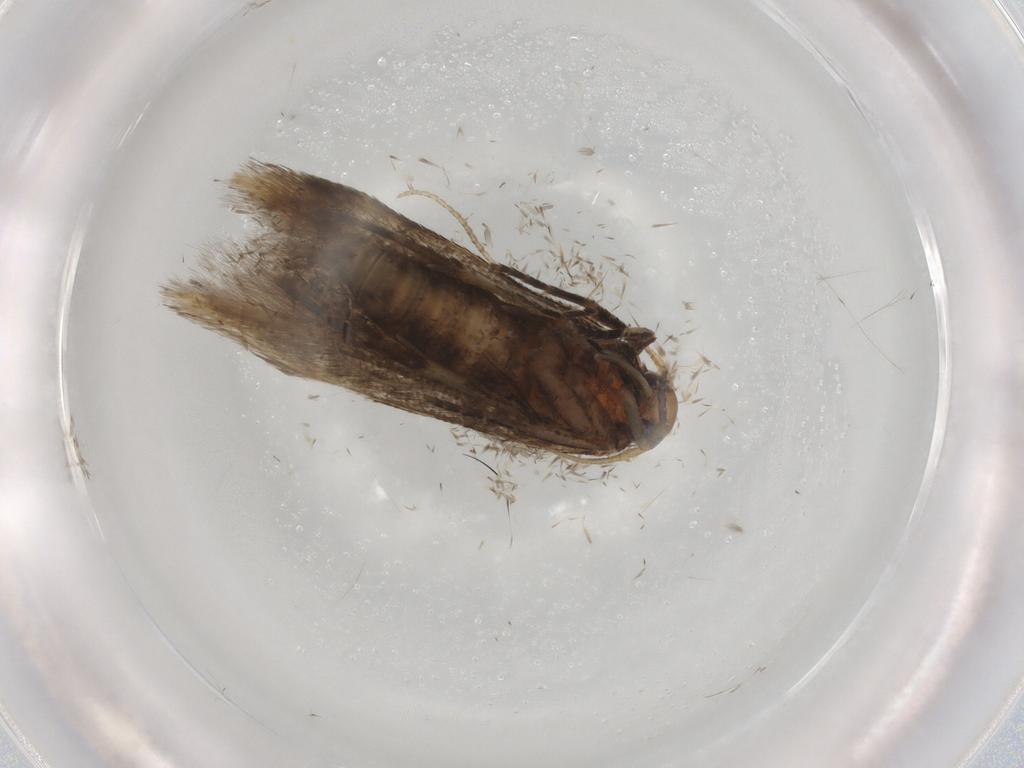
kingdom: Animalia
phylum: Arthropoda
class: Insecta
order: Lepidoptera
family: Cosmopterigidae
